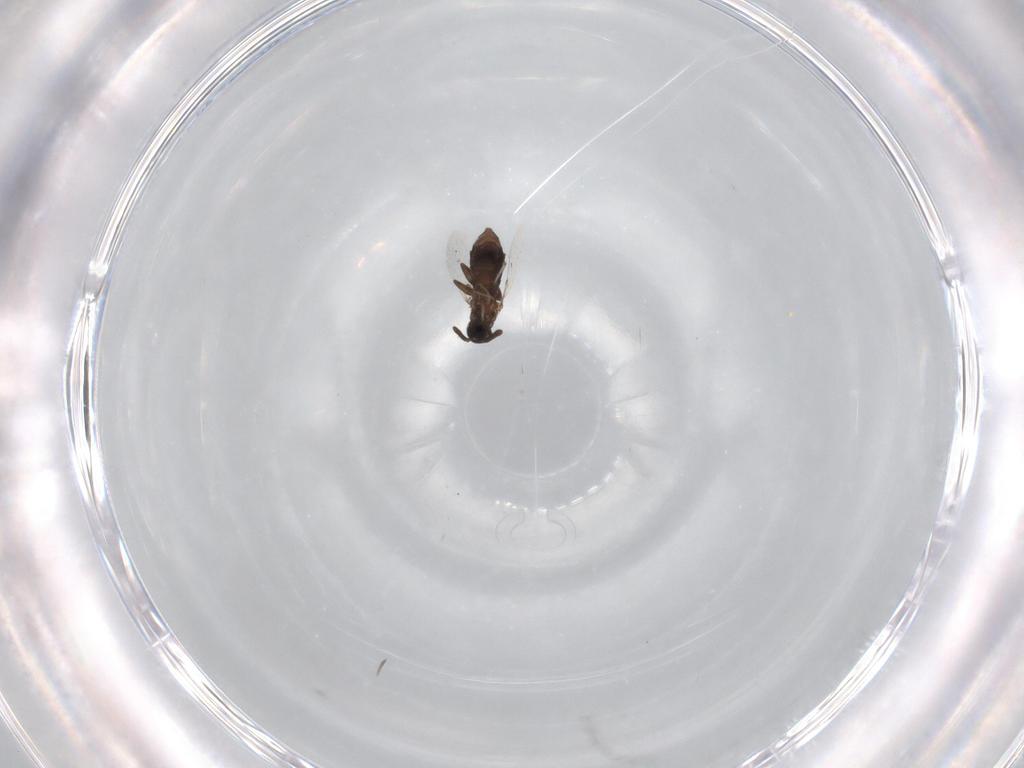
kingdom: Animalia
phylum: Arthropoda
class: Insecta
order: Diptera
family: Scatopsidae
